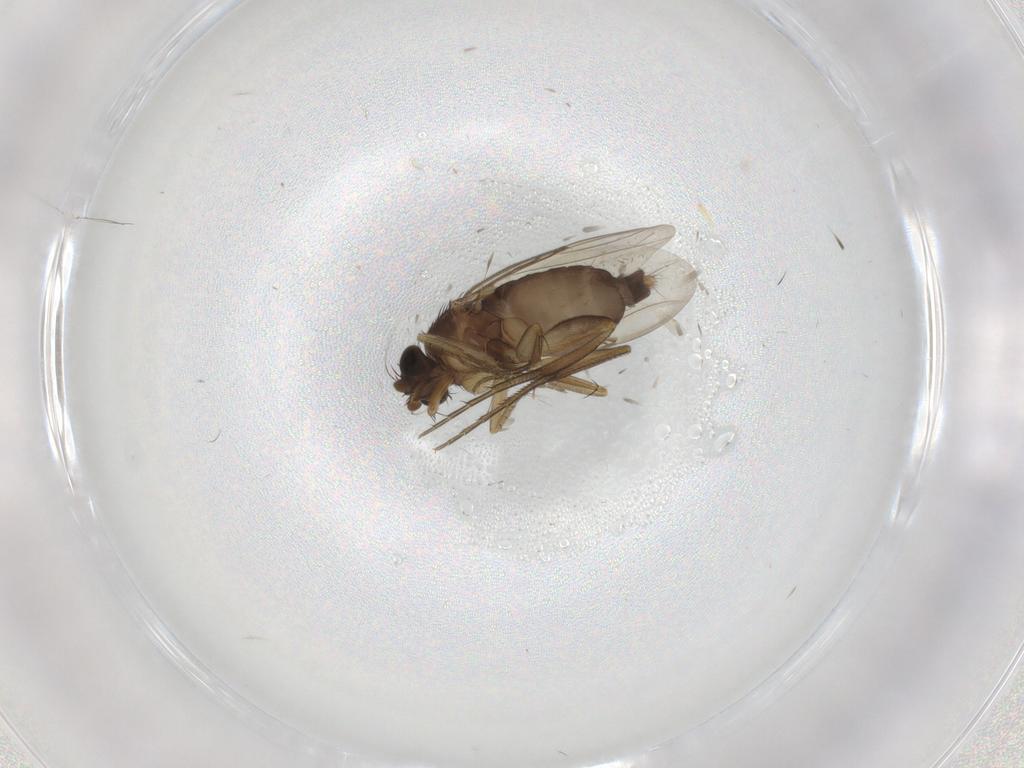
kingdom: Animalia
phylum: Arthropoda
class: Insecta
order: Diptera
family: Phoridae
